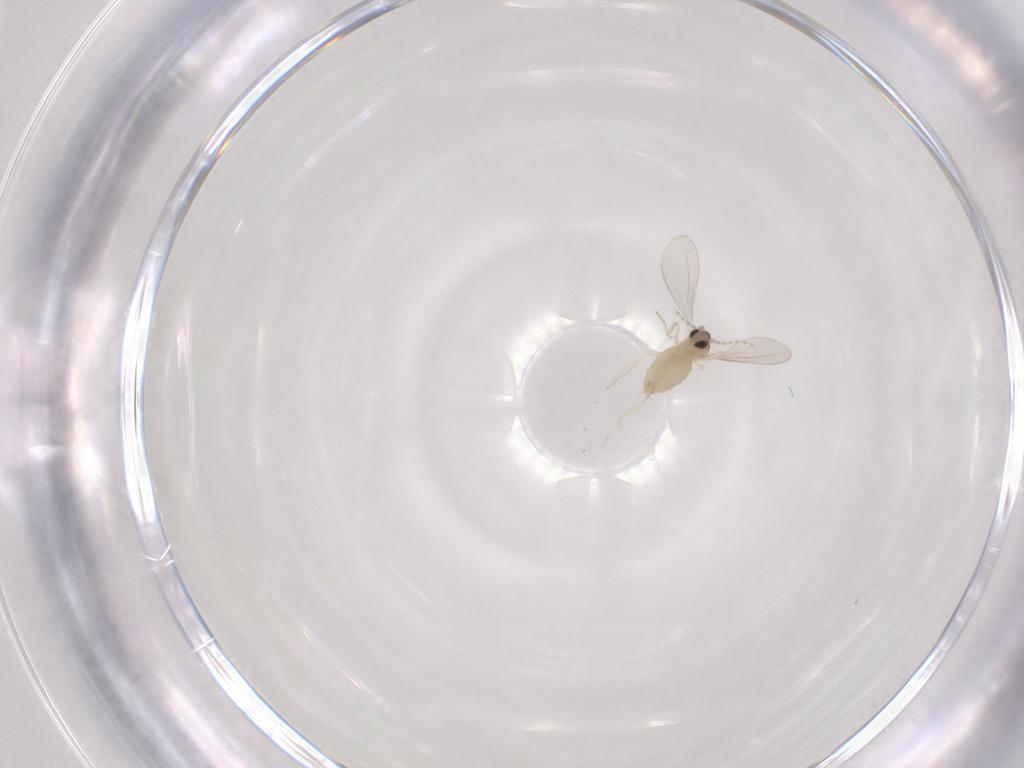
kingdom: Animalia
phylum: Arthropoda
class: Insecta
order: Diptera
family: Cecidomyiidae
